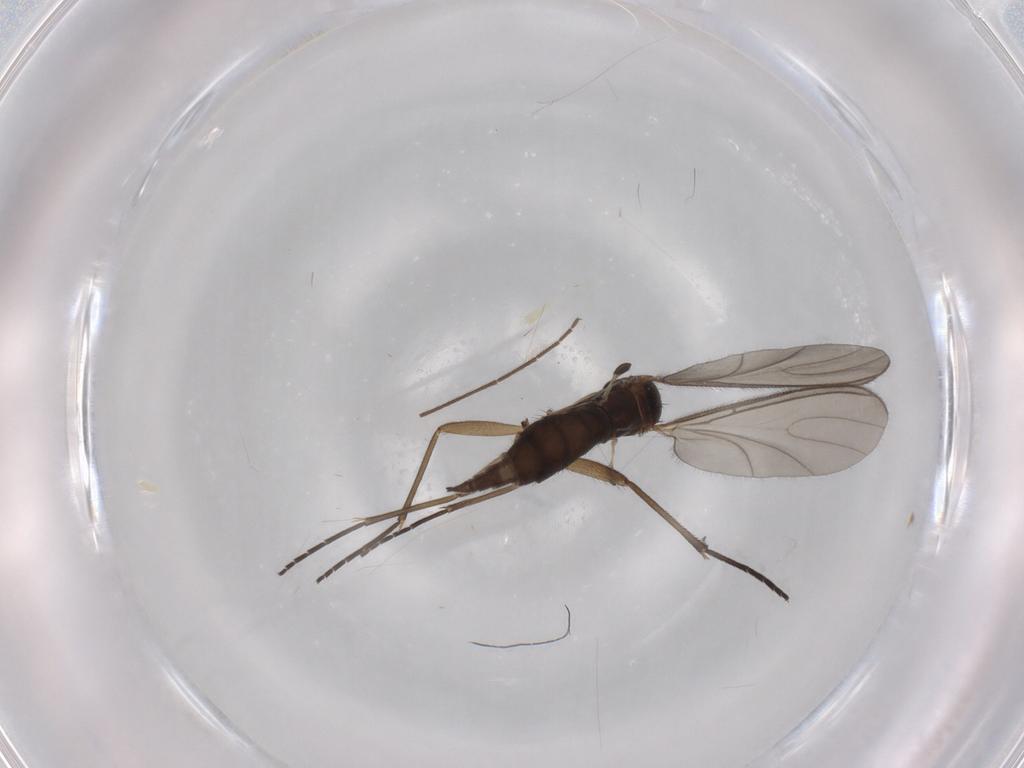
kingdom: Animalia
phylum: Arthropoda
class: Insecta
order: Diptera
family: Sciaridae
